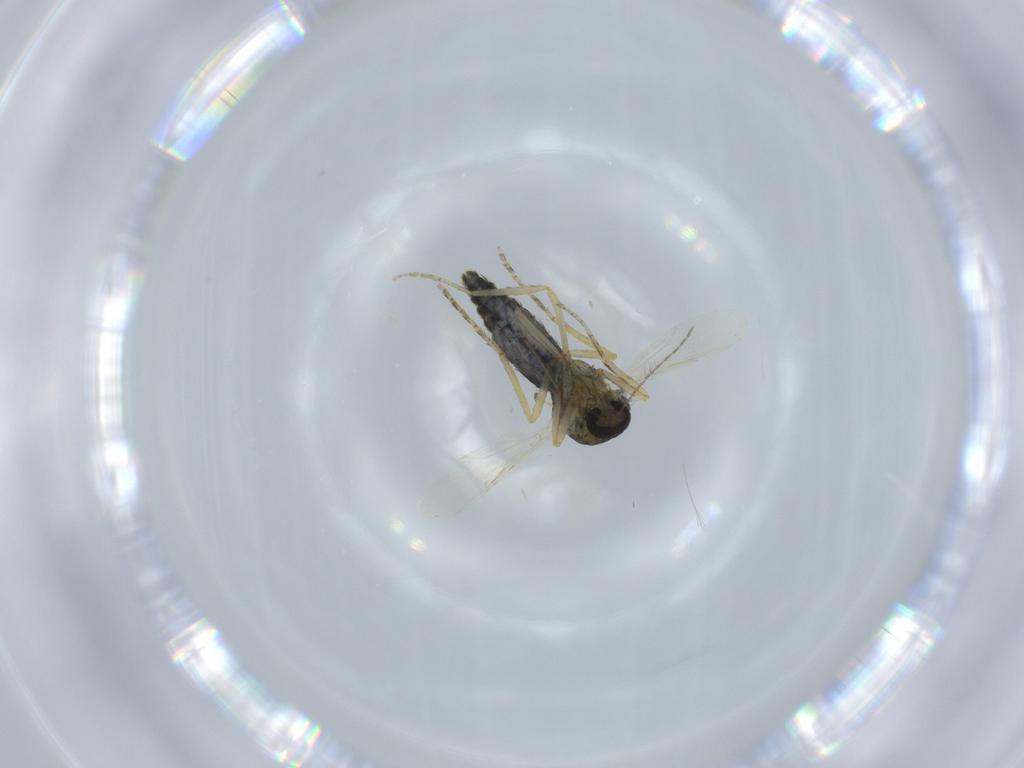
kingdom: Animalia
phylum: Arthropoda
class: Insecta
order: Diptera
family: Ceratopogonidae
